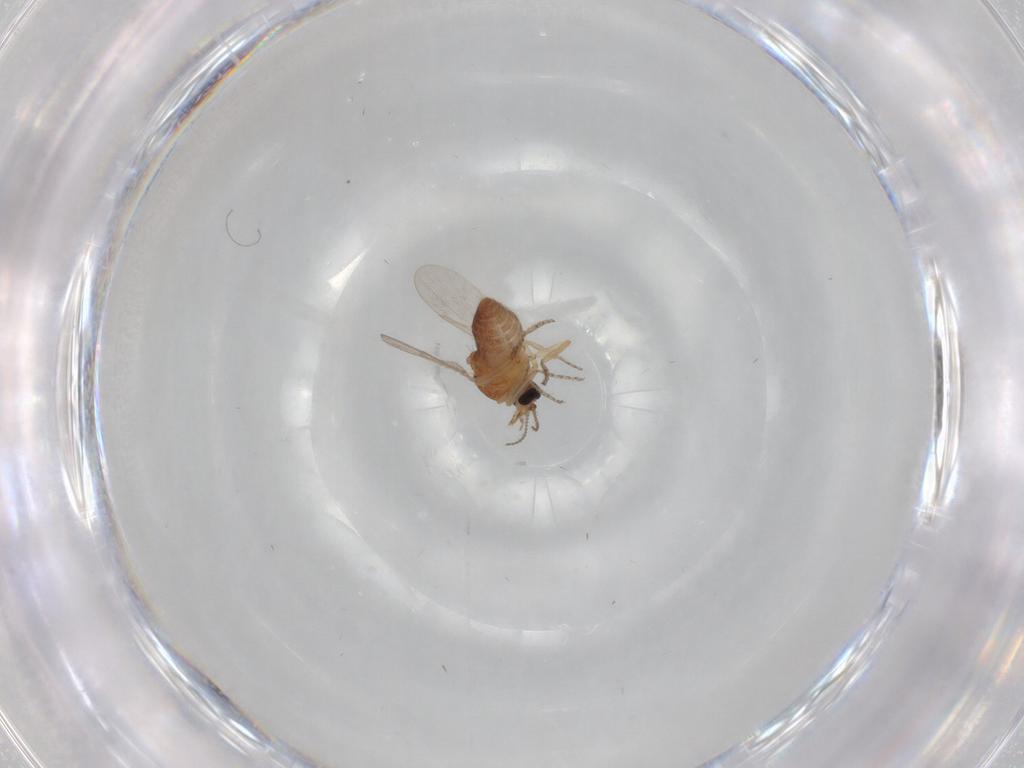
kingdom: Animalia
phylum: Arthropoda
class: Insecta
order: Diptera
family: Ceratopogonidae
